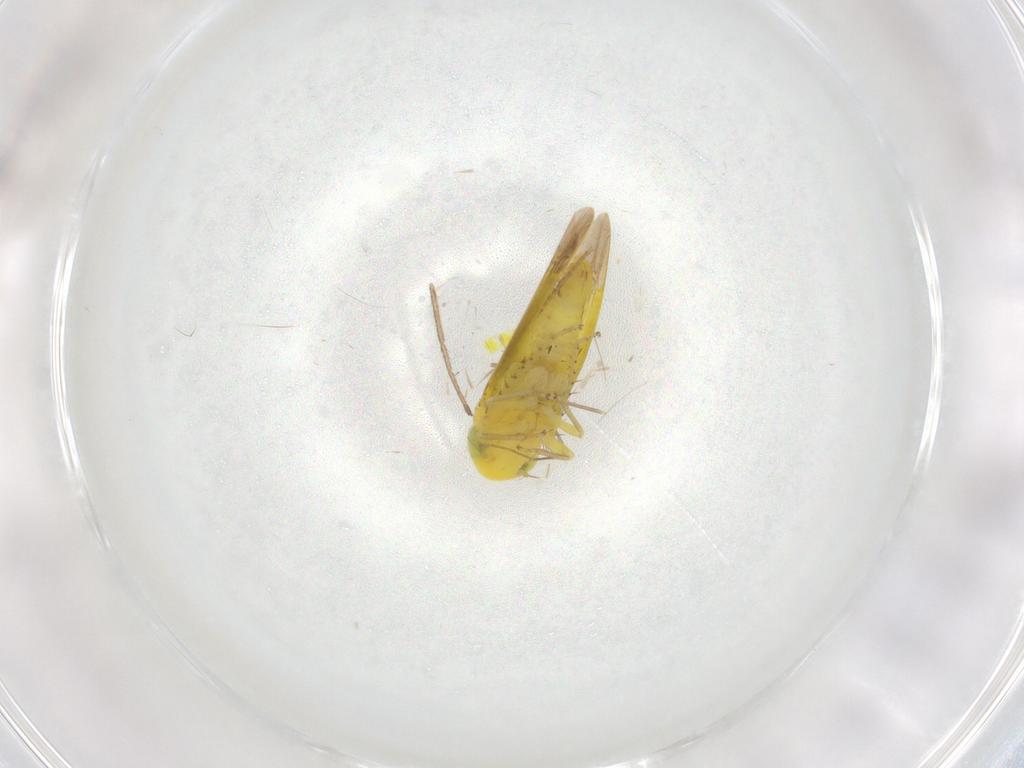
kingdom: Animalia
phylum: Arthropoda
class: Insecta
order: Hemiptera
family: Cicadellidae
